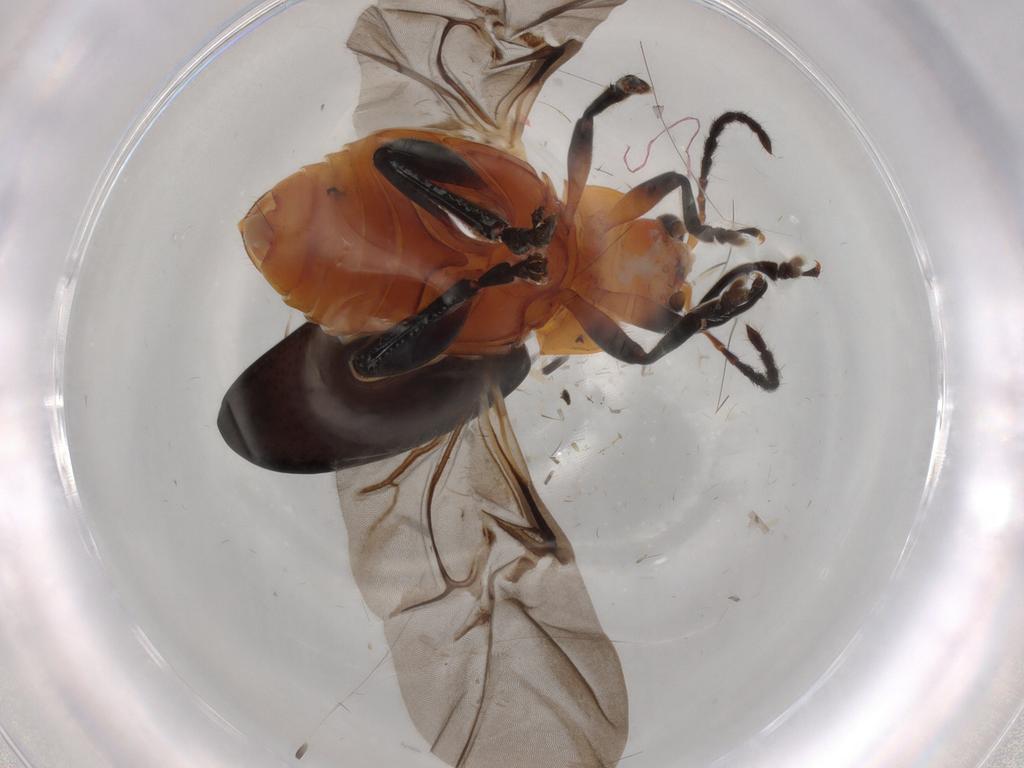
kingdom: Animalia
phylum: Arthropoda
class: Insecta
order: Coleoptera
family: Chrysomelidae
